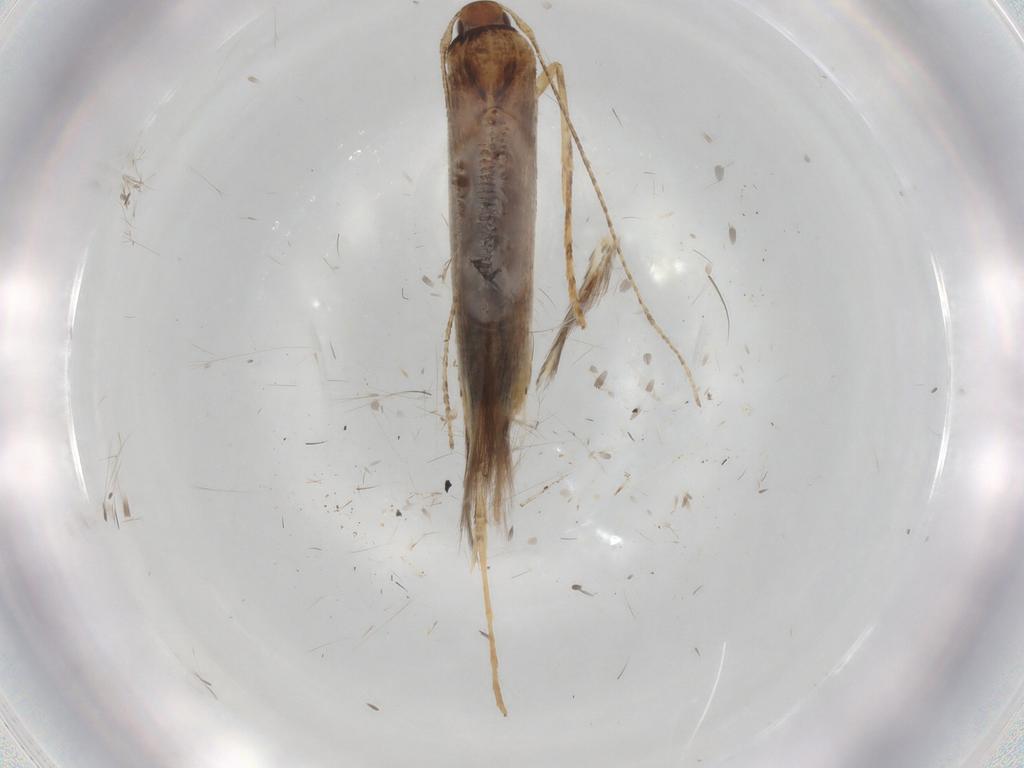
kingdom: Animalia
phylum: Arthropoda
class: Insecta
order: Lepidoptera
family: Cosmopterigidae
